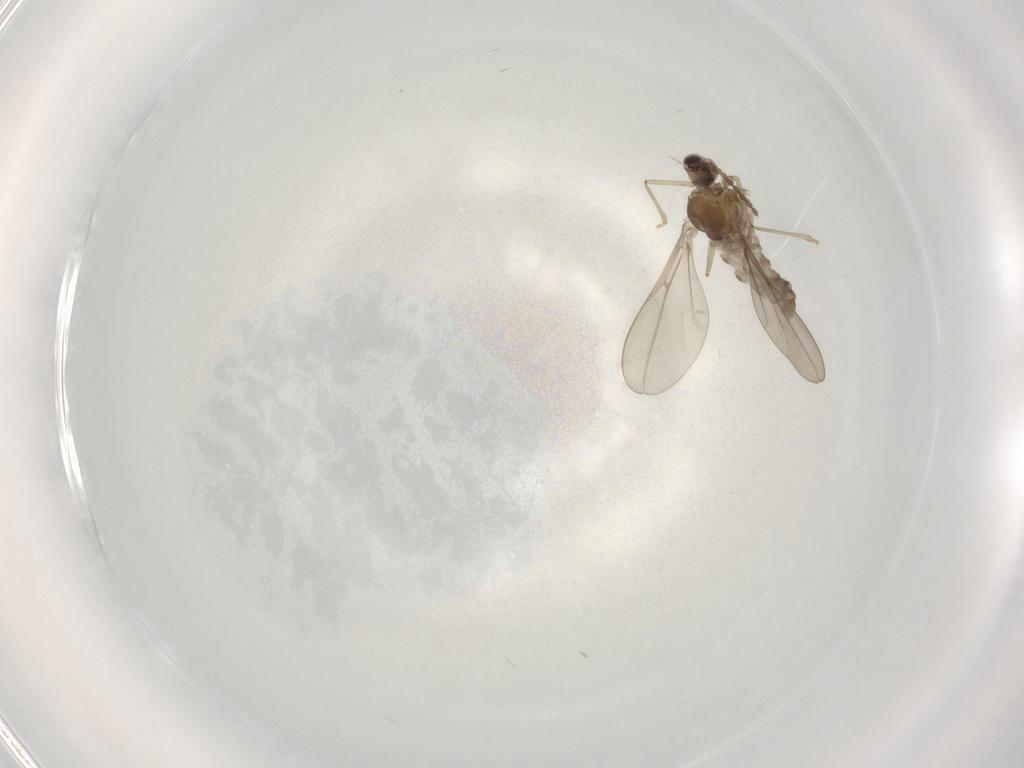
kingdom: Animalia
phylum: Arthropoda
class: Insecta
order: Diptera
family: Cecidomyiidae
